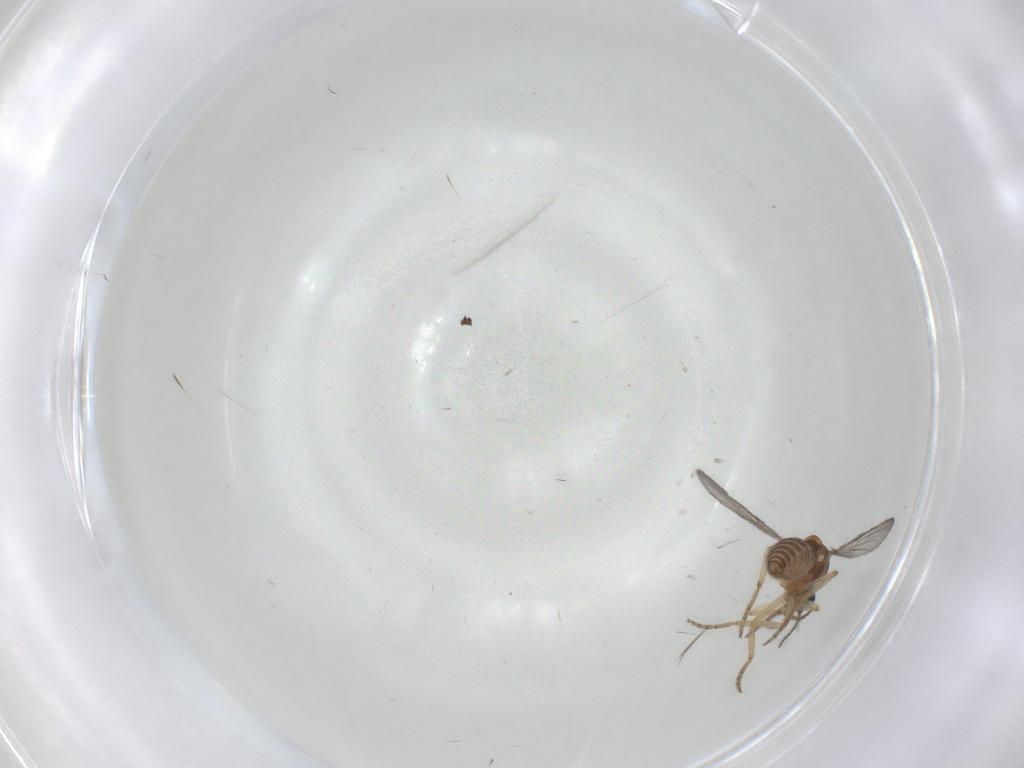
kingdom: Animalia
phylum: Arthropoda
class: Insecta
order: Diptera
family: Ceratopogonidae
